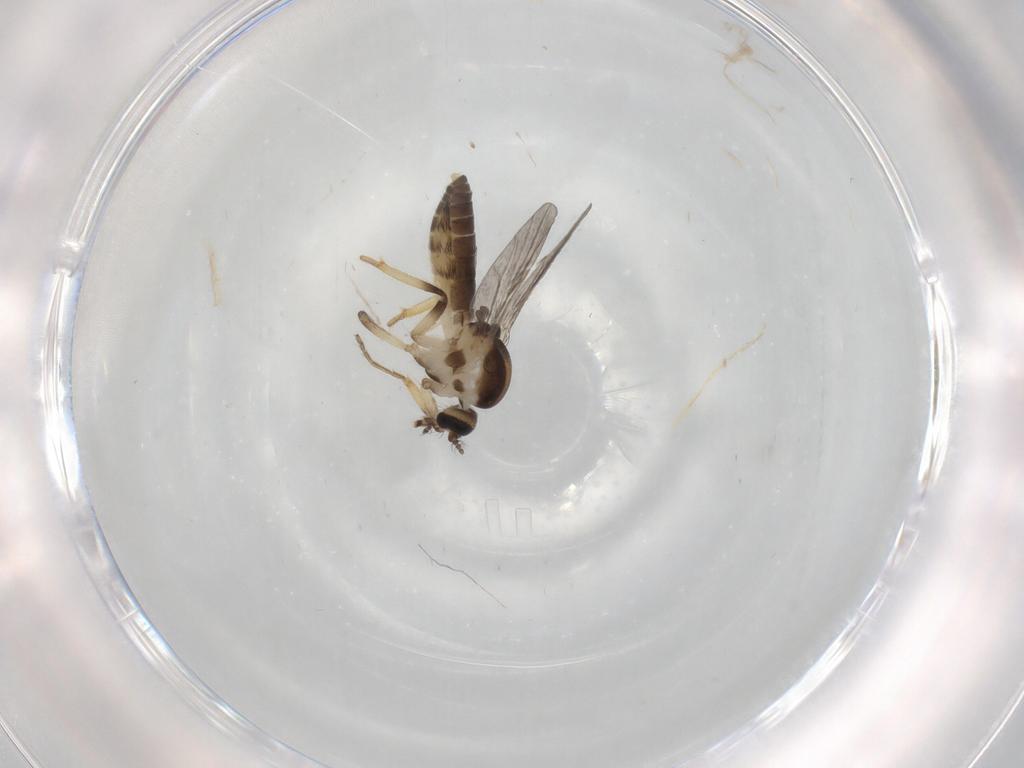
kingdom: Animalia
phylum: Arthropoda
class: Insecta
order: Diptera
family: Ceratopogonidae
